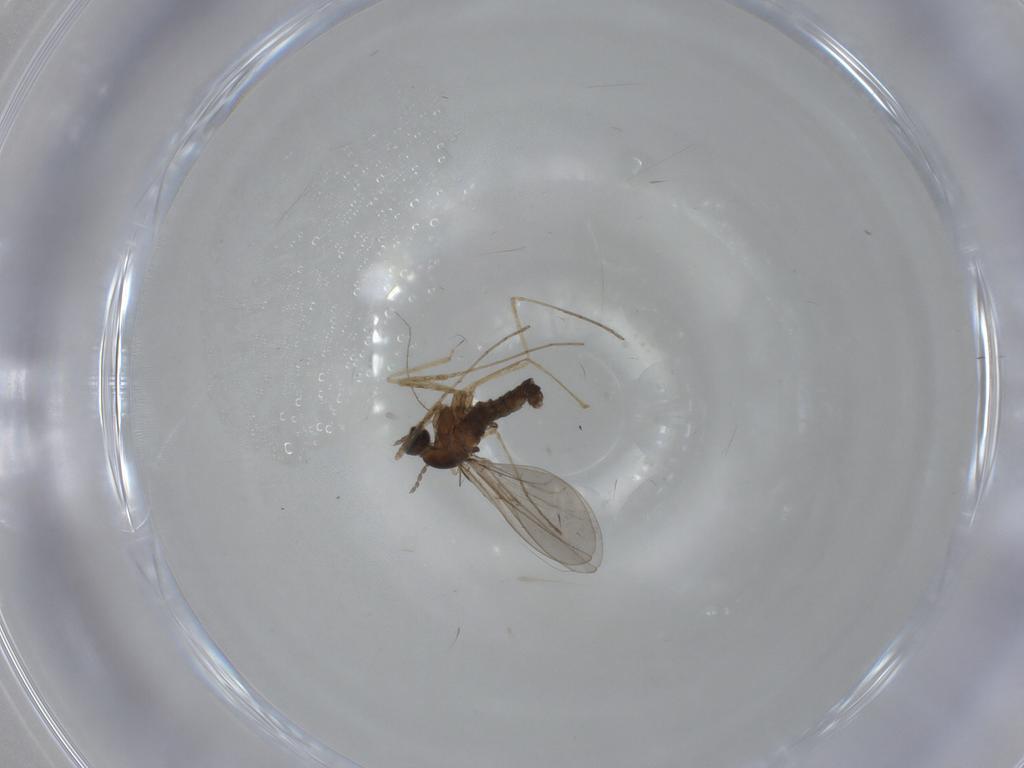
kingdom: Animalia
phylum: Arthropoda
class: Insecta
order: Diptera
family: Cecidomyiidae
